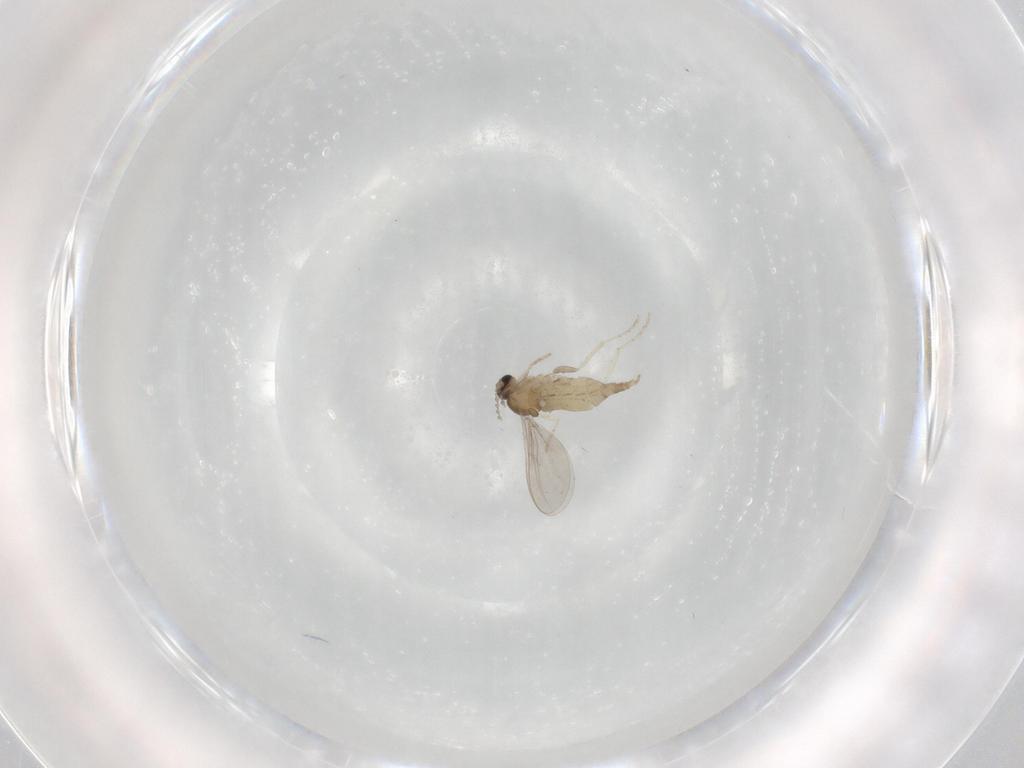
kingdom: Animalia
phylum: Arthropoda
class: Insecta
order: Diptera
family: Cecidomyiidae
